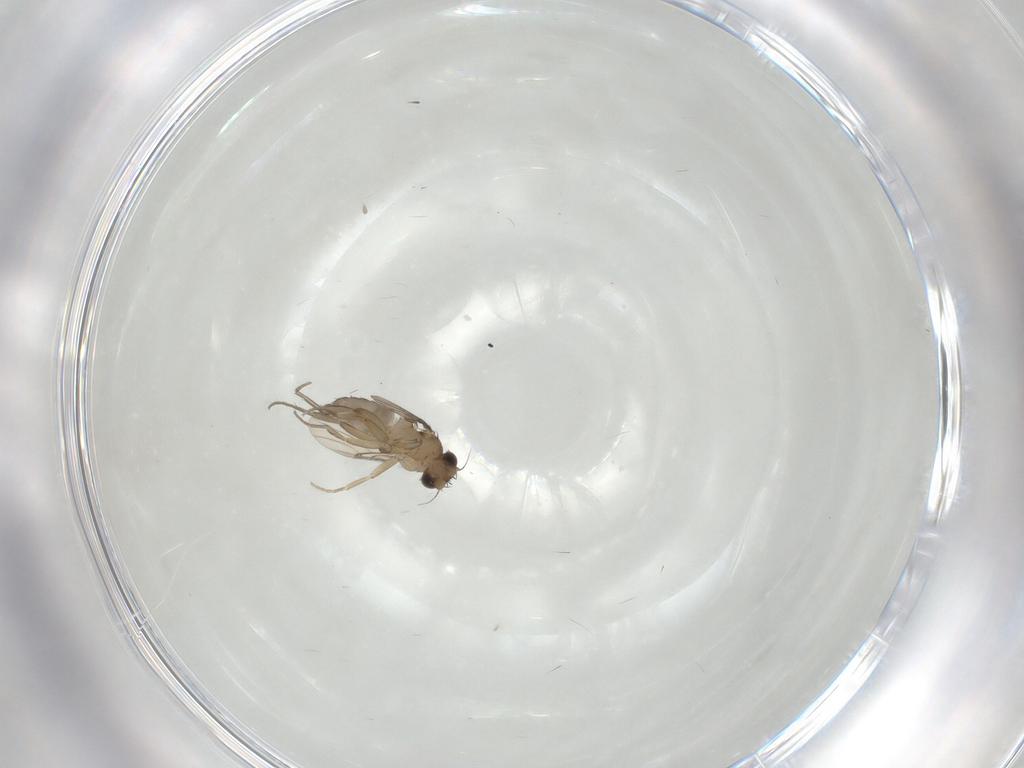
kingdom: Animalia
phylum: Arthropoda
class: Insecta
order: Diptera
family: Phoridae
